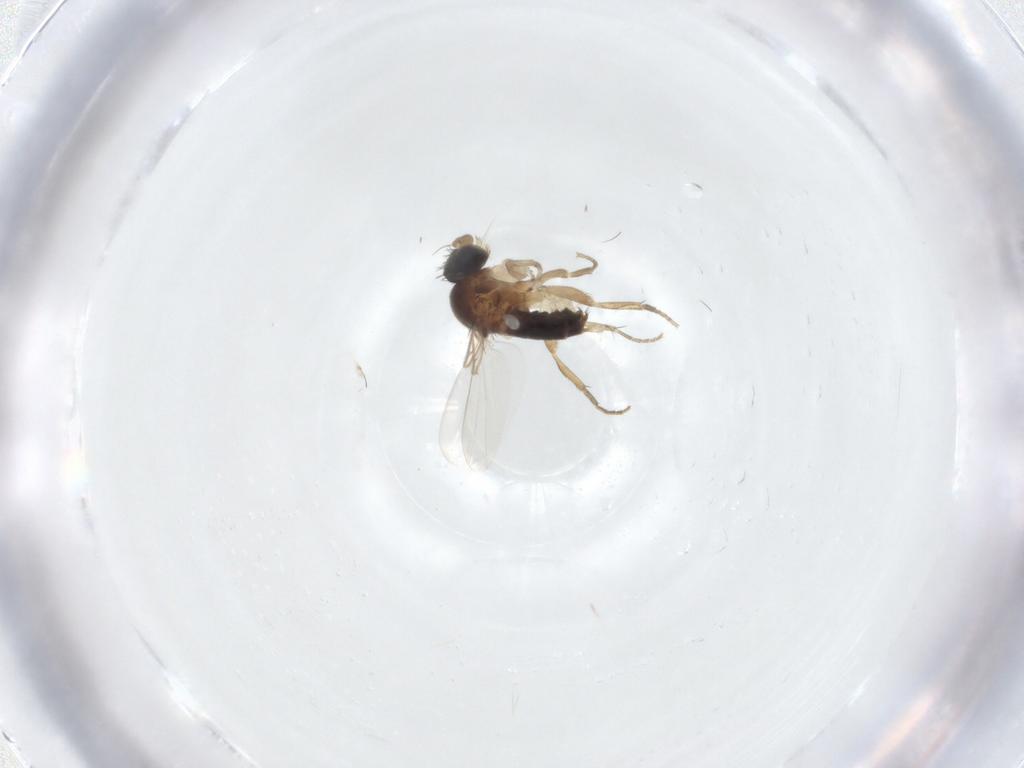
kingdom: Animalia
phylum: Arthropoda
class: Insecta
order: Diptera
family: Phoridae
